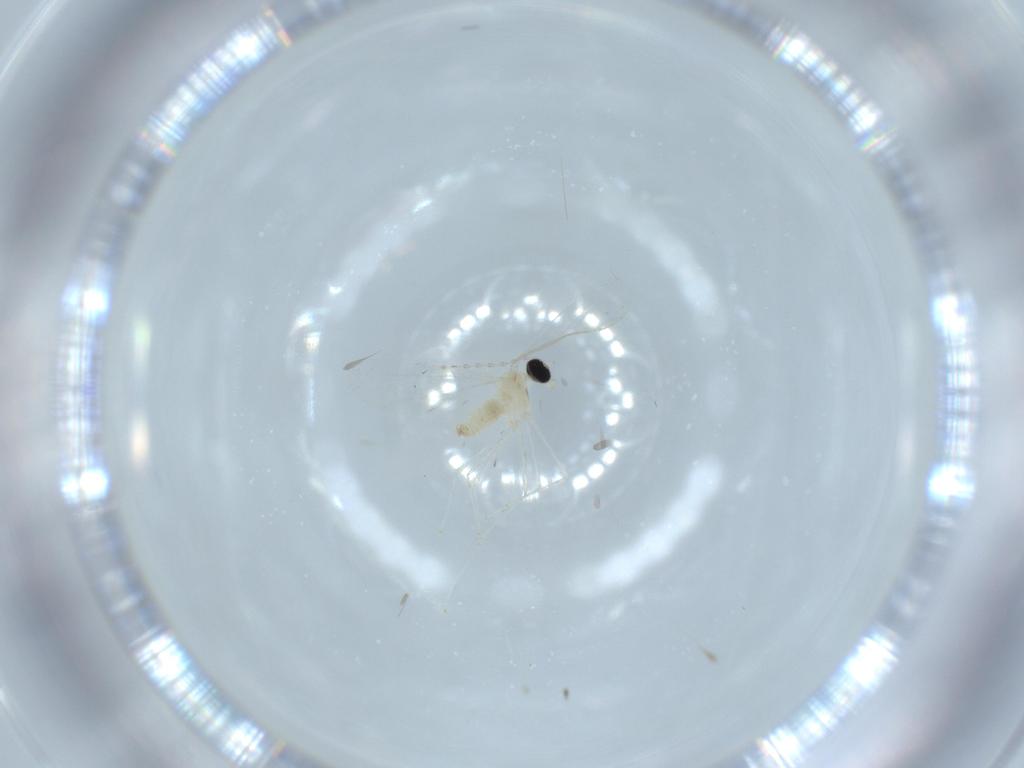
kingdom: Animalia
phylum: Arthropoda
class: Insecta
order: Diptera
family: Cecidomyiidae
